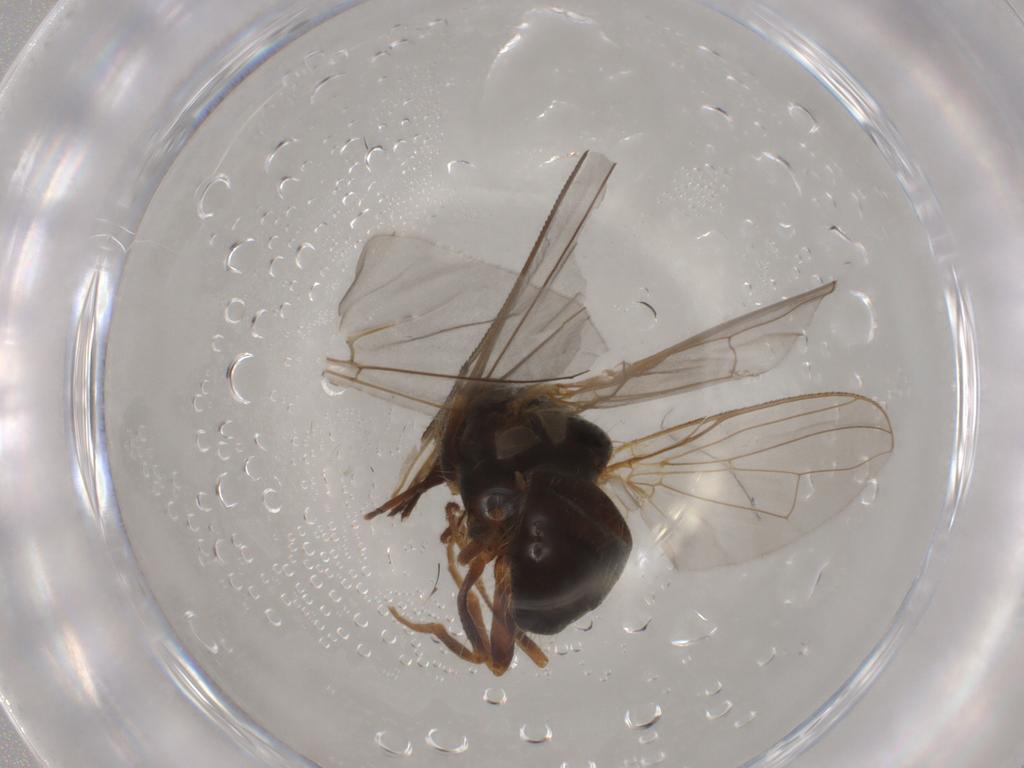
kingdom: Animalia
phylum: Arthropoda
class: Insecta
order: Diptera
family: Muscidae
